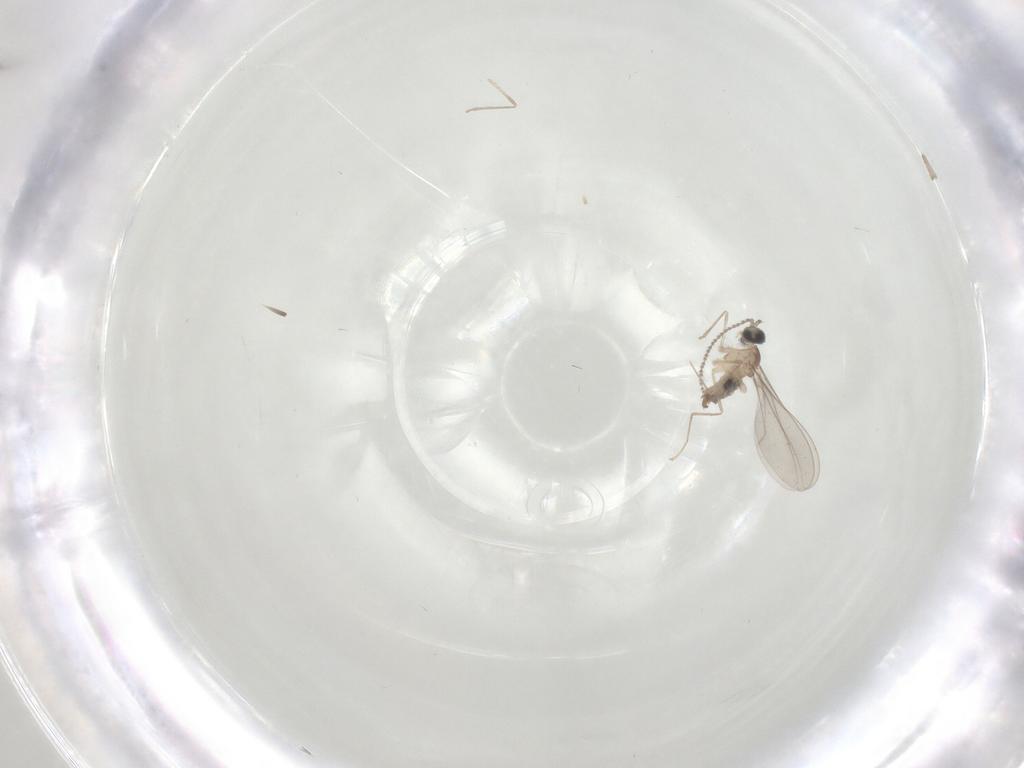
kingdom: Animalia
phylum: Arthropoda
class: Insecta
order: Diptera
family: Cecidomyiidae
